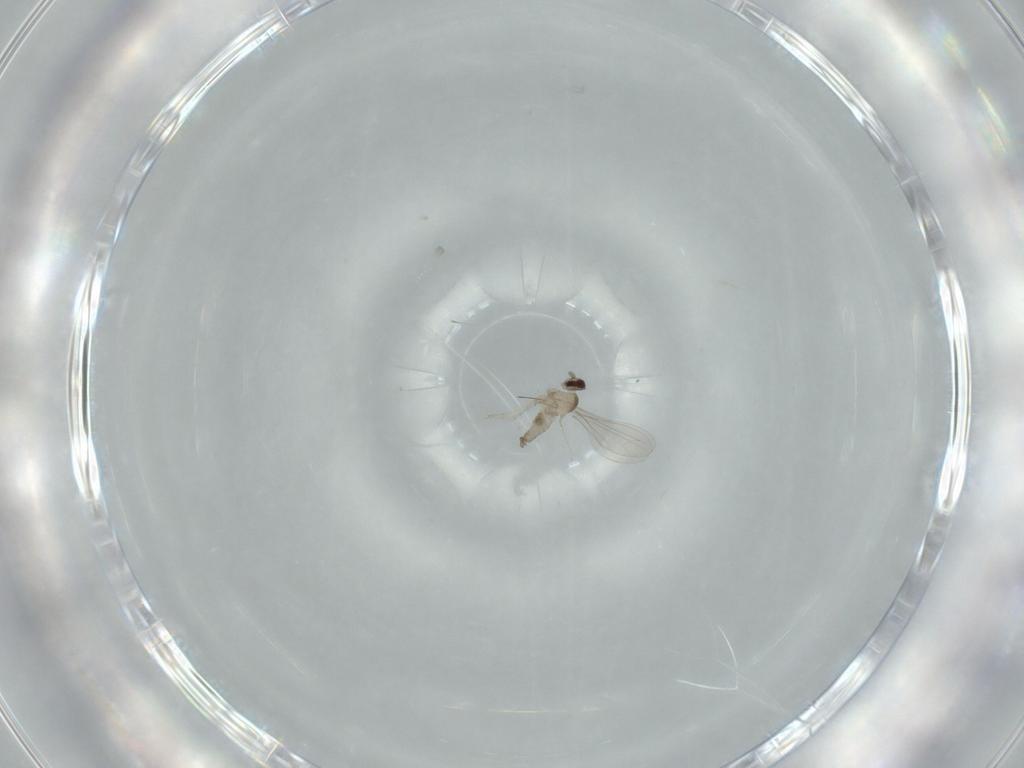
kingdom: Animalia
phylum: Arthropoda
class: Insecta
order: Diptera
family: Cecidomyiidae
